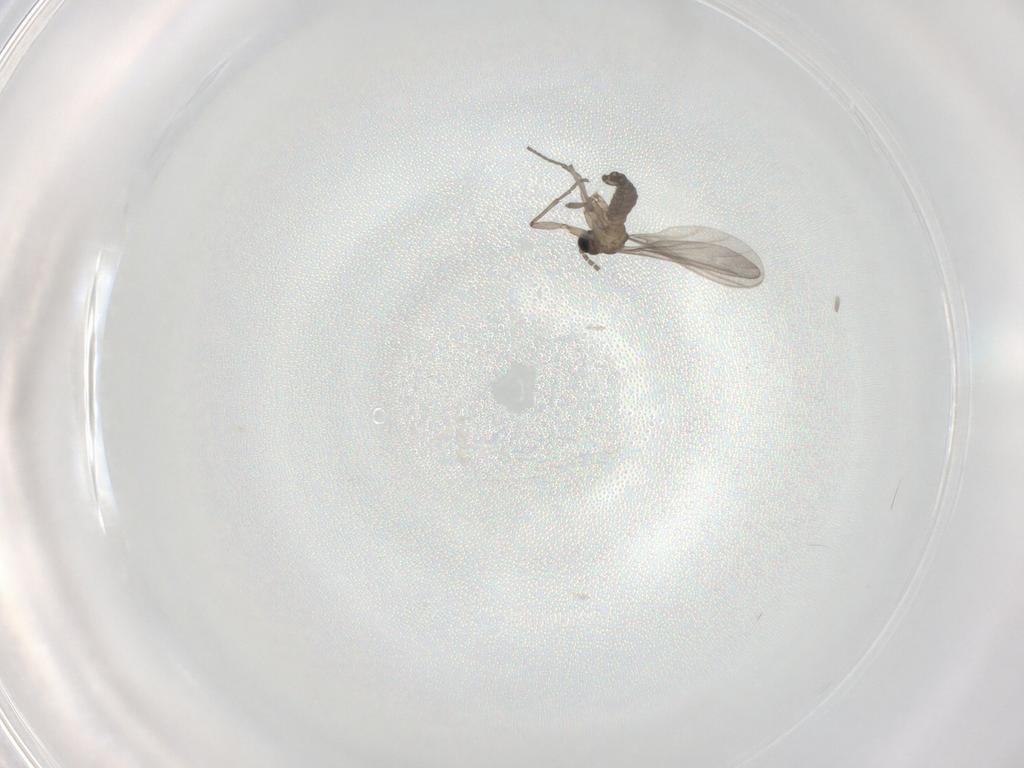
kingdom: Animalia
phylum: Arthropoda
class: Insecta
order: Diptera
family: Sciaridae
